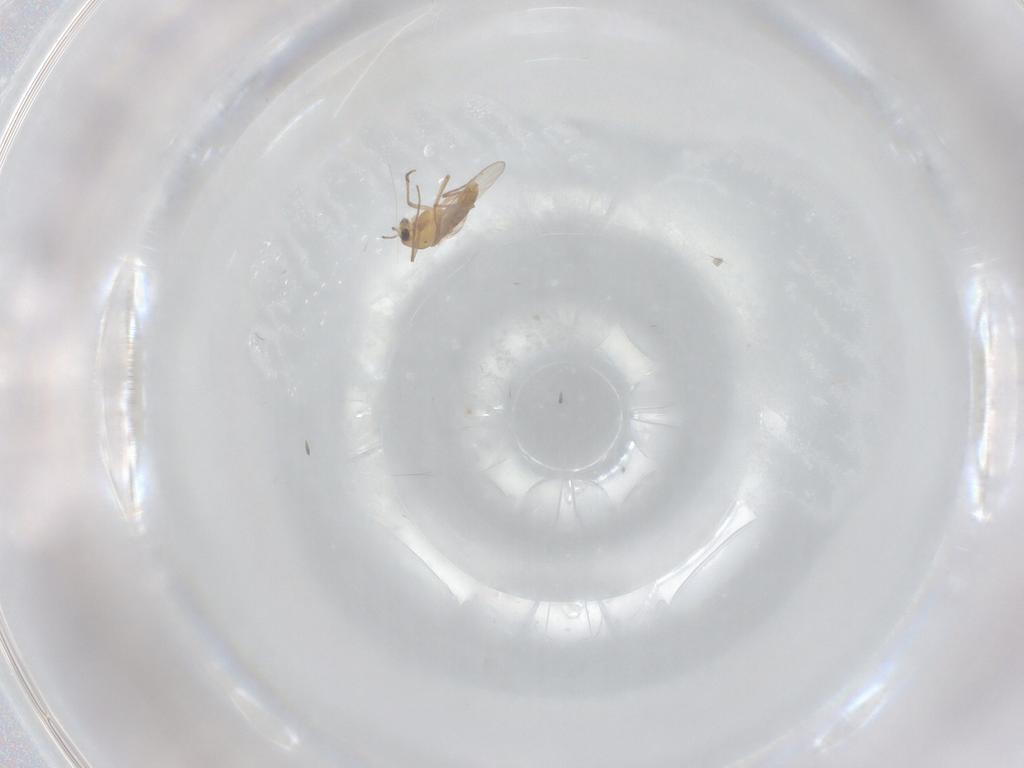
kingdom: Animalia
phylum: Arthropoda
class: Insecta
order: Diptera
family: Chironomidae
